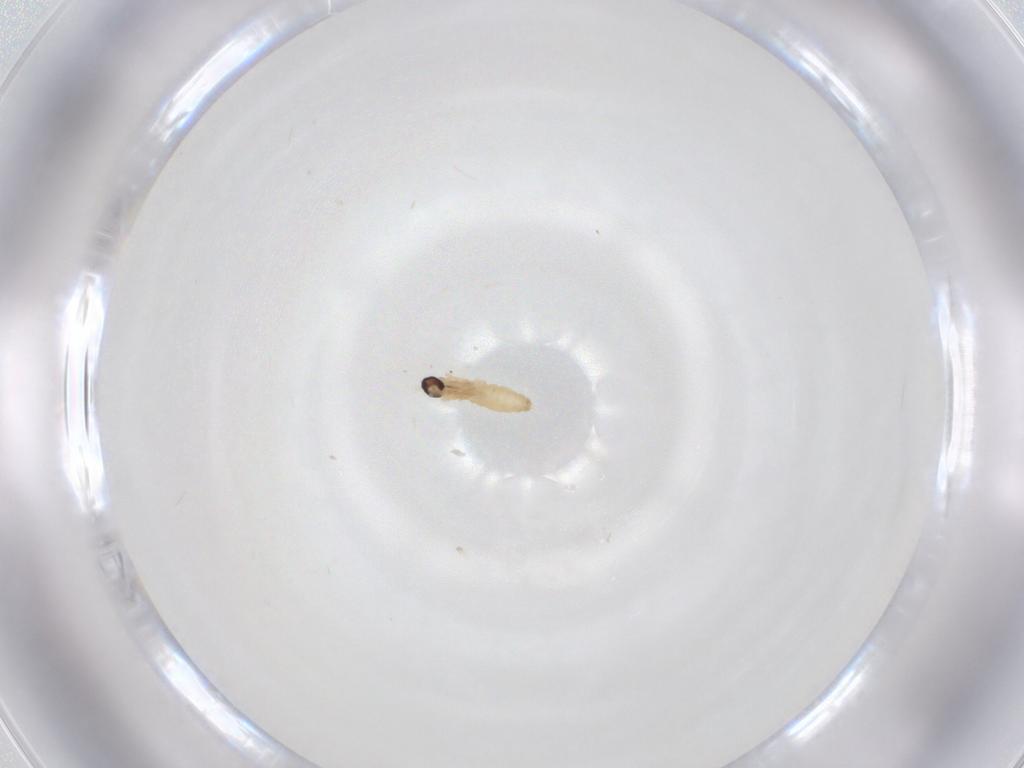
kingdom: Animalia
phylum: Arthropoda
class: Insecta
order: Diptera
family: Cecidomyiidae
